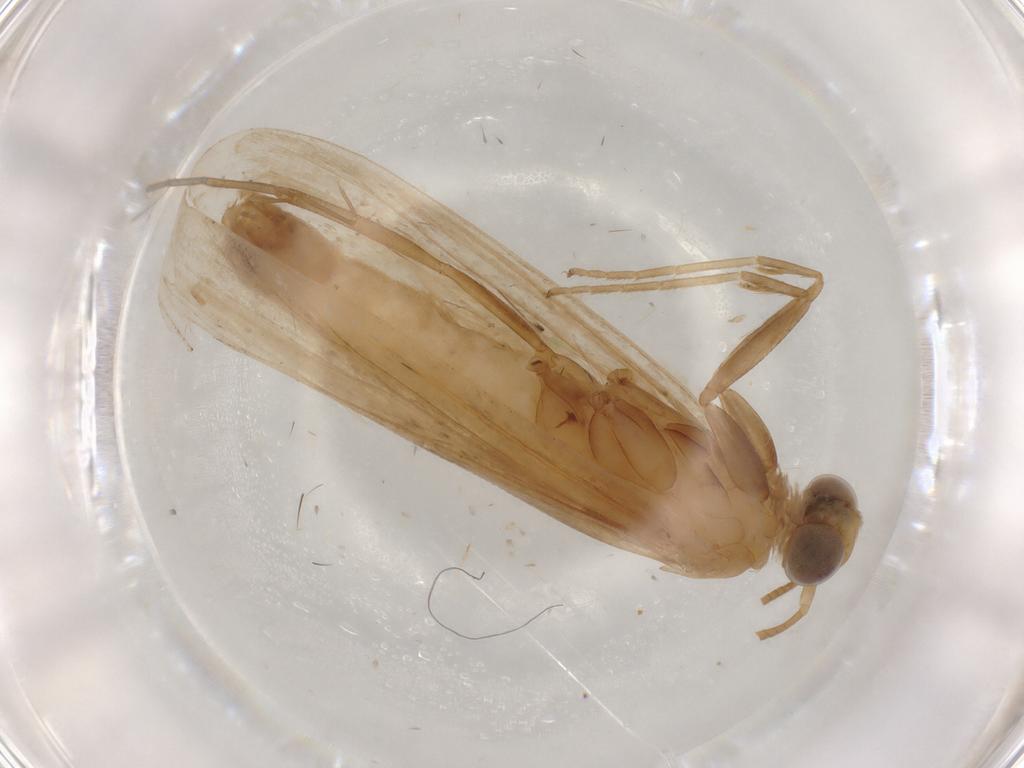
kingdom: Animalia
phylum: Arthropoda
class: Insecta
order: Lepidoptera
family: Pyralidae
